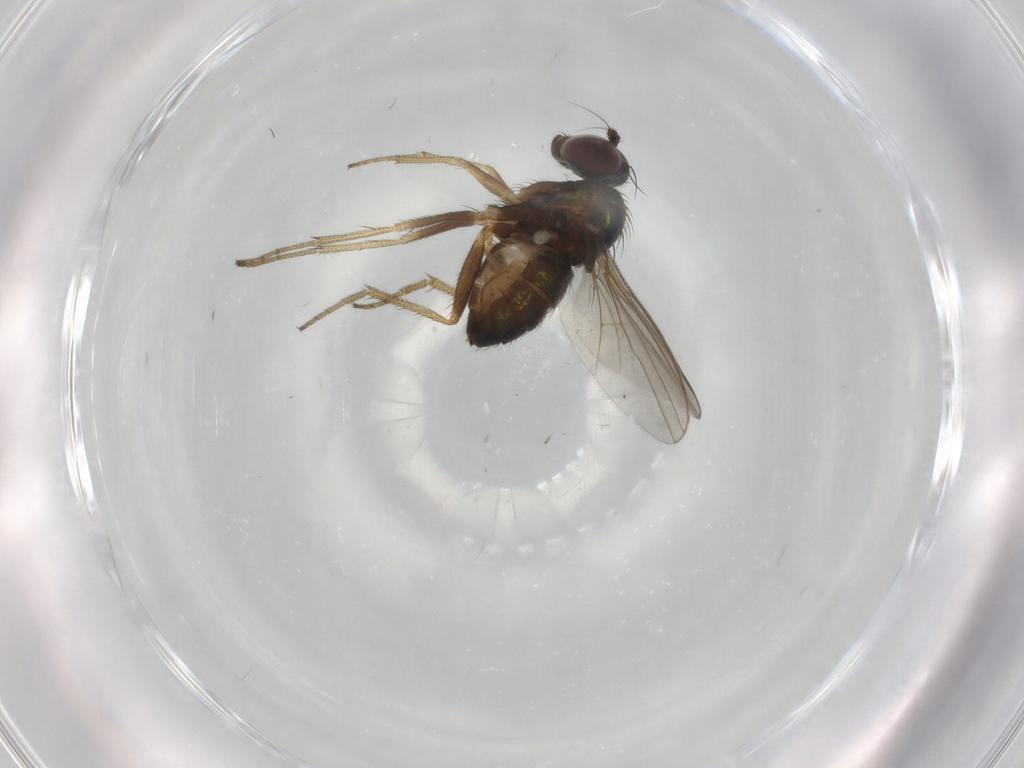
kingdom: Animalia
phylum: Arthropoda
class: Insecta
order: Diptera
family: Dolichopodidae
